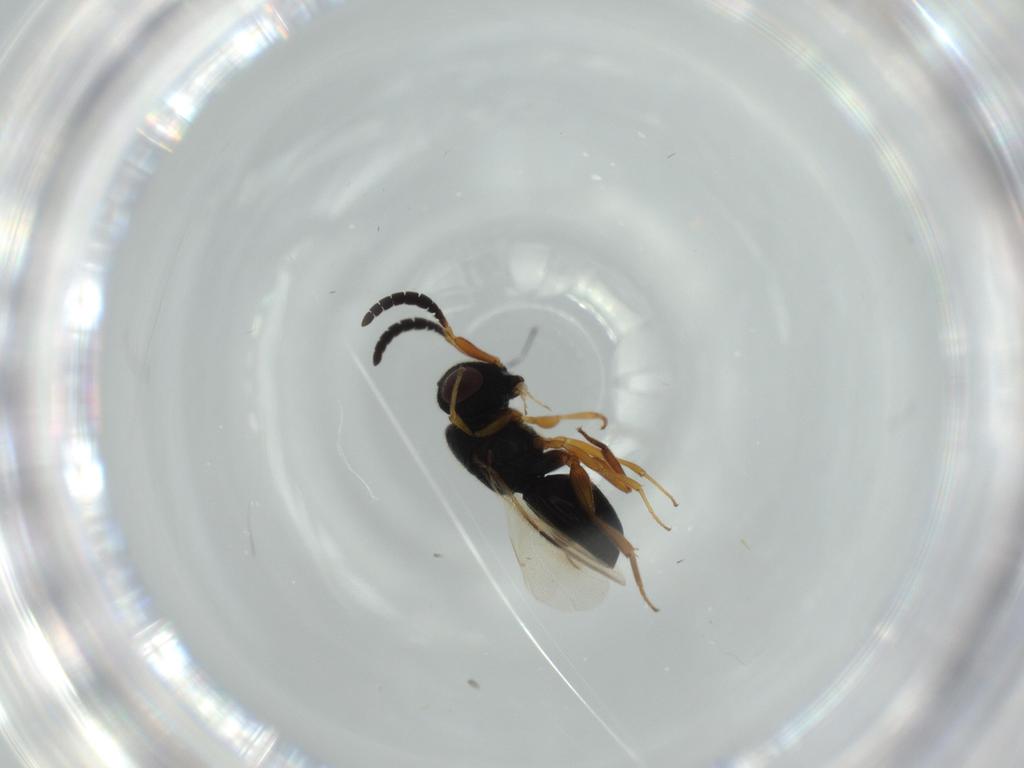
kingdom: Animalia
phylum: Arthropoda
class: Insecta
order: Hymenoptera
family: Megaspilidae
